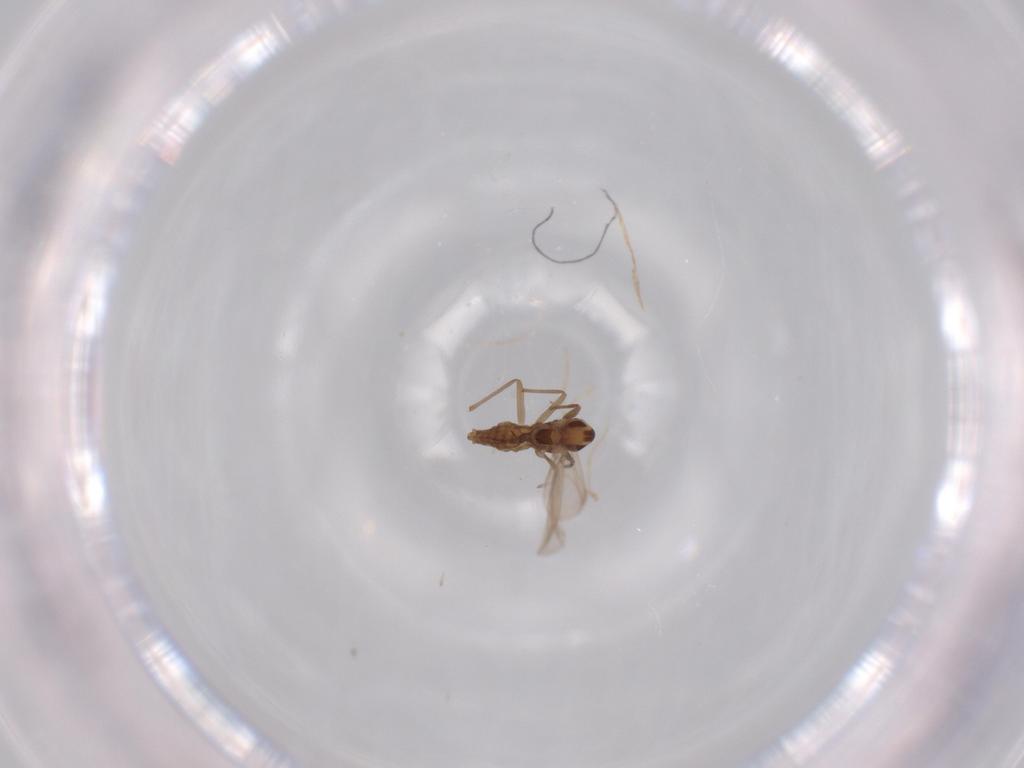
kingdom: Animalia
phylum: Arthropoda
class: Insecta
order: Diptera
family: Chironomidae
